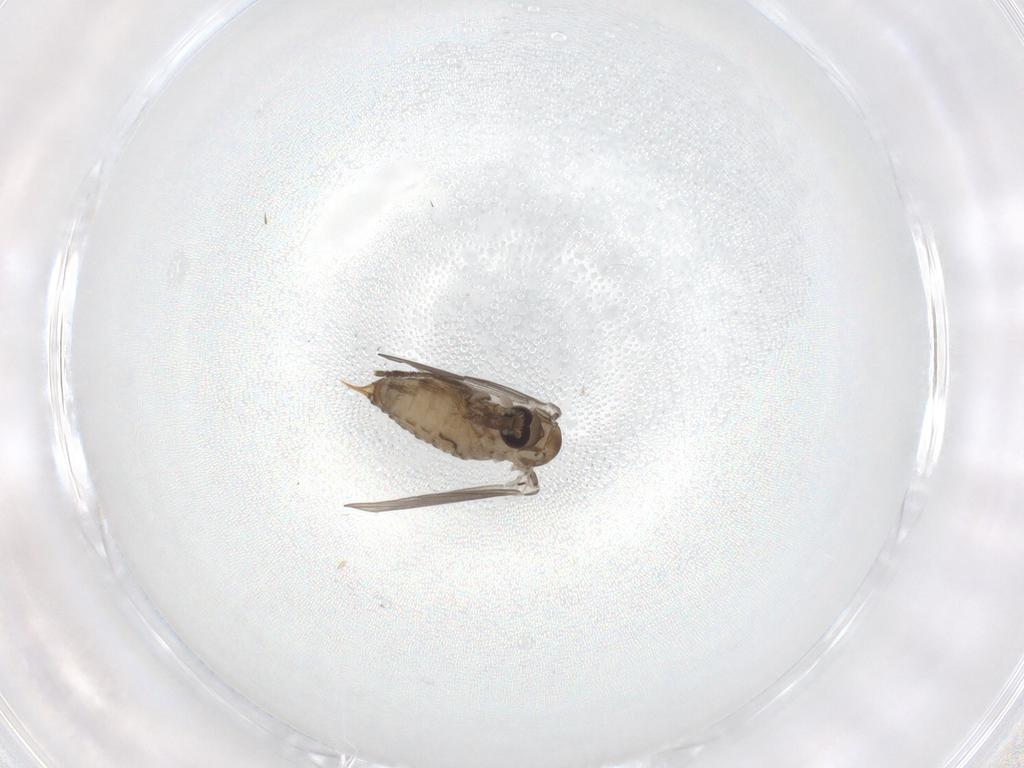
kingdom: Animalia
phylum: Arthropoda
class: Insecta
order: Diptera
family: Psychodidae
